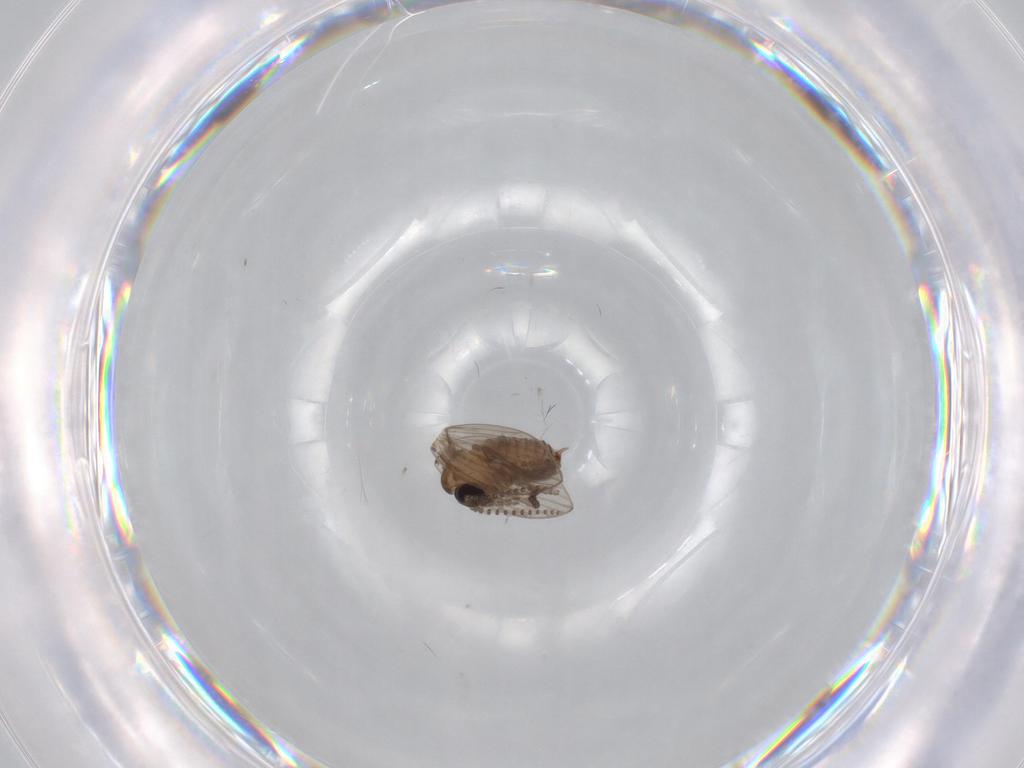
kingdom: Animalia
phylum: Arthropoda
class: Insecta
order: Diptera
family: Psychodidae
